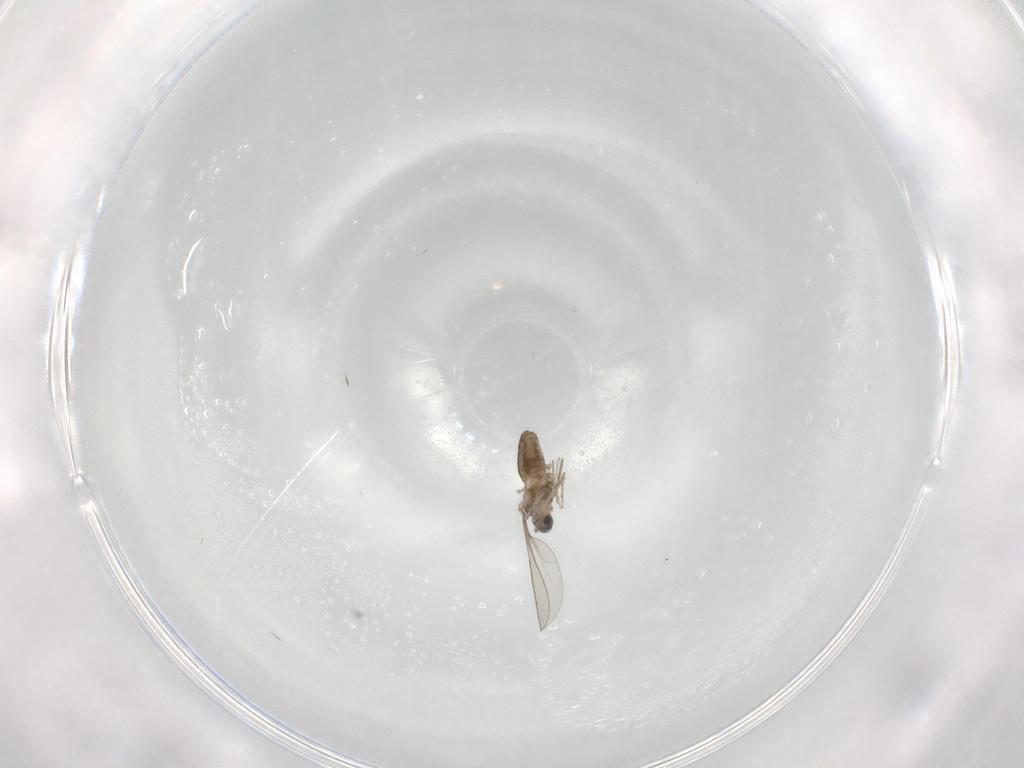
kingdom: Animalia
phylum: Arthropoda
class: Insecta
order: Diptera
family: Cecidomyiidae
